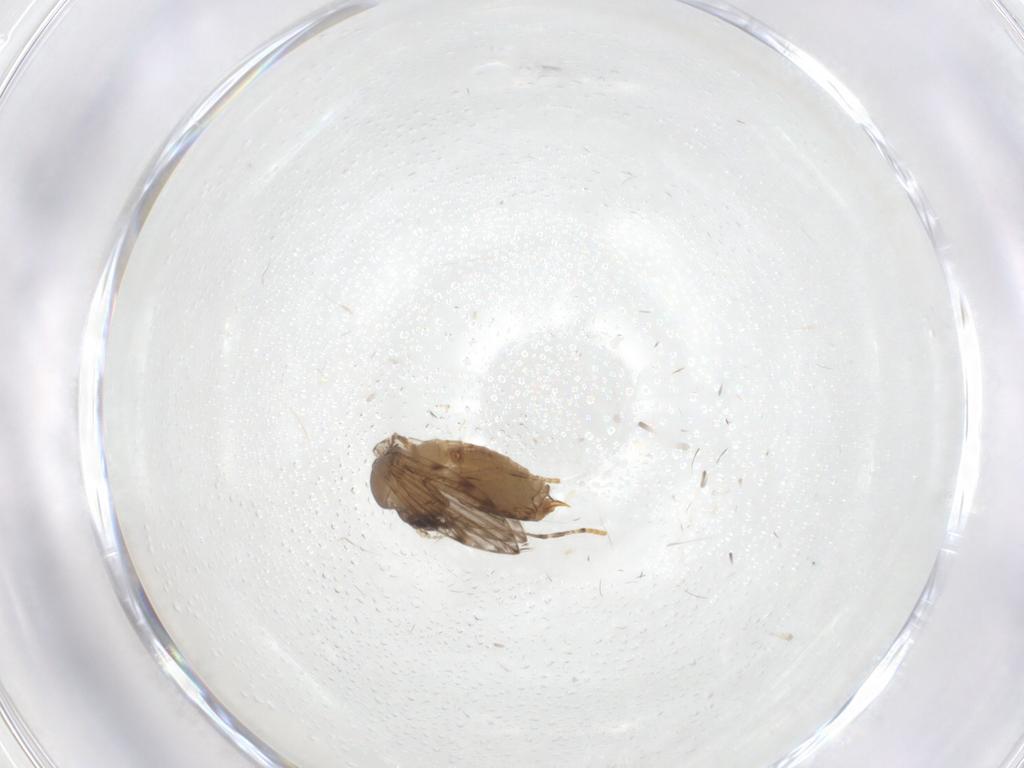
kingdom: Animalia
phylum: Arthropoda
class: Insecta
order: Diptera
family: Psychodidae
